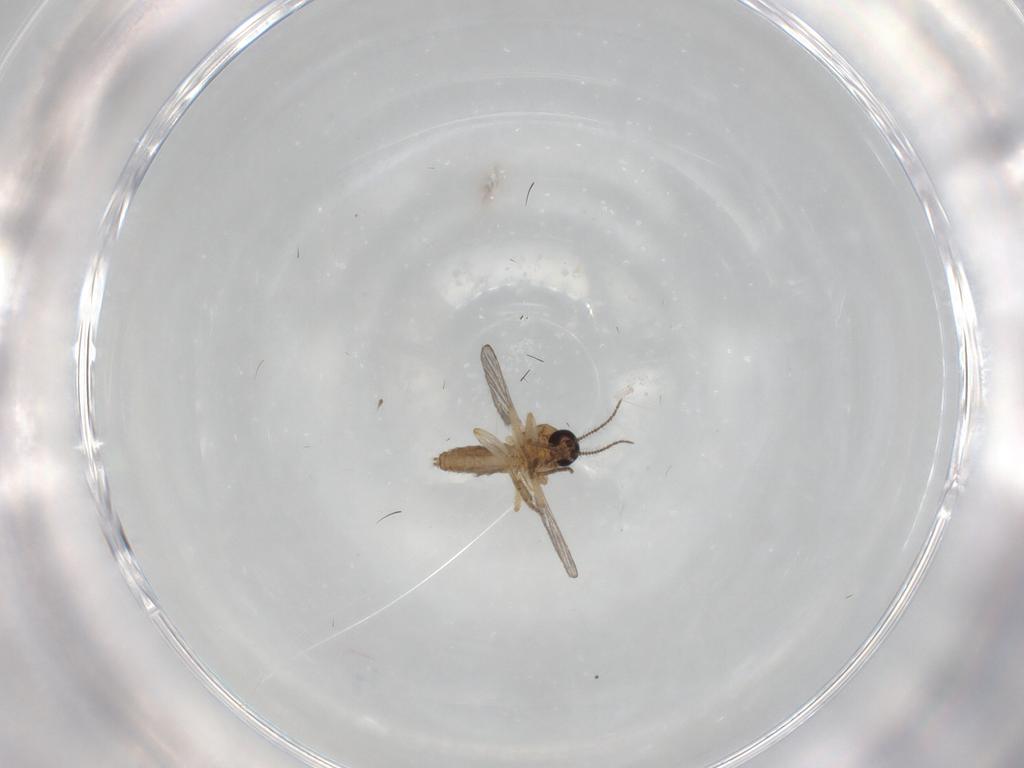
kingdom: Animalia
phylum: Arthropoda
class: Insecta
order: Diptera
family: Ceratopogonidae
